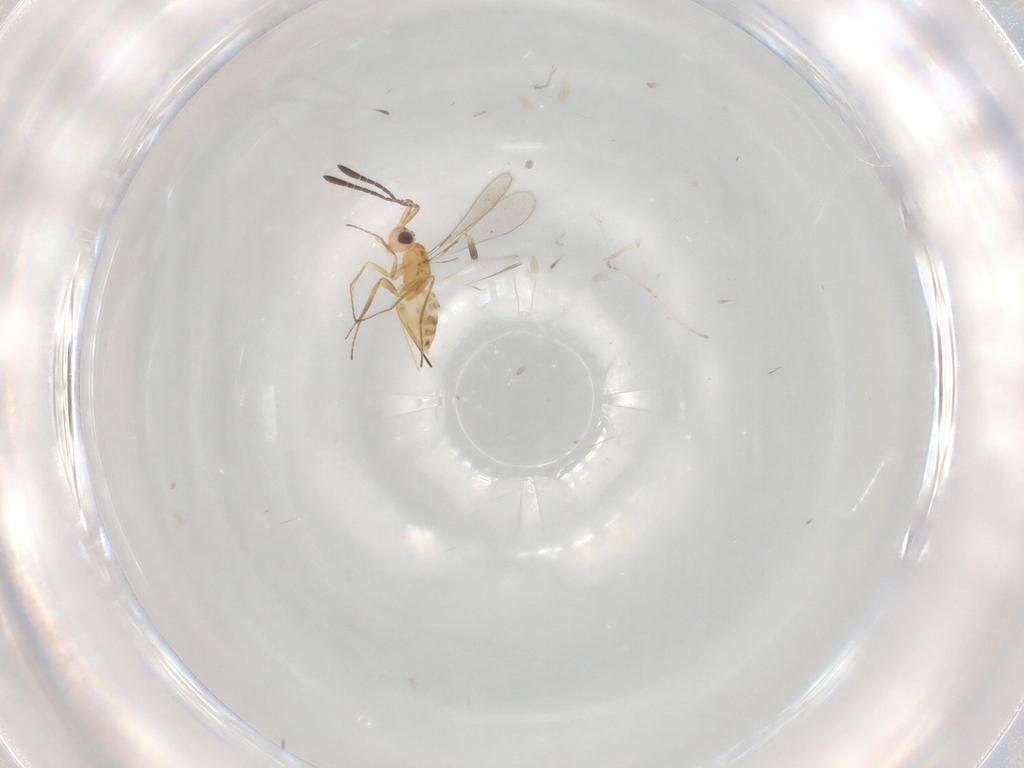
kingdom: Animalia
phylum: Arthropoda
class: Insecta
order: Hymenoptera
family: Mymaridae
